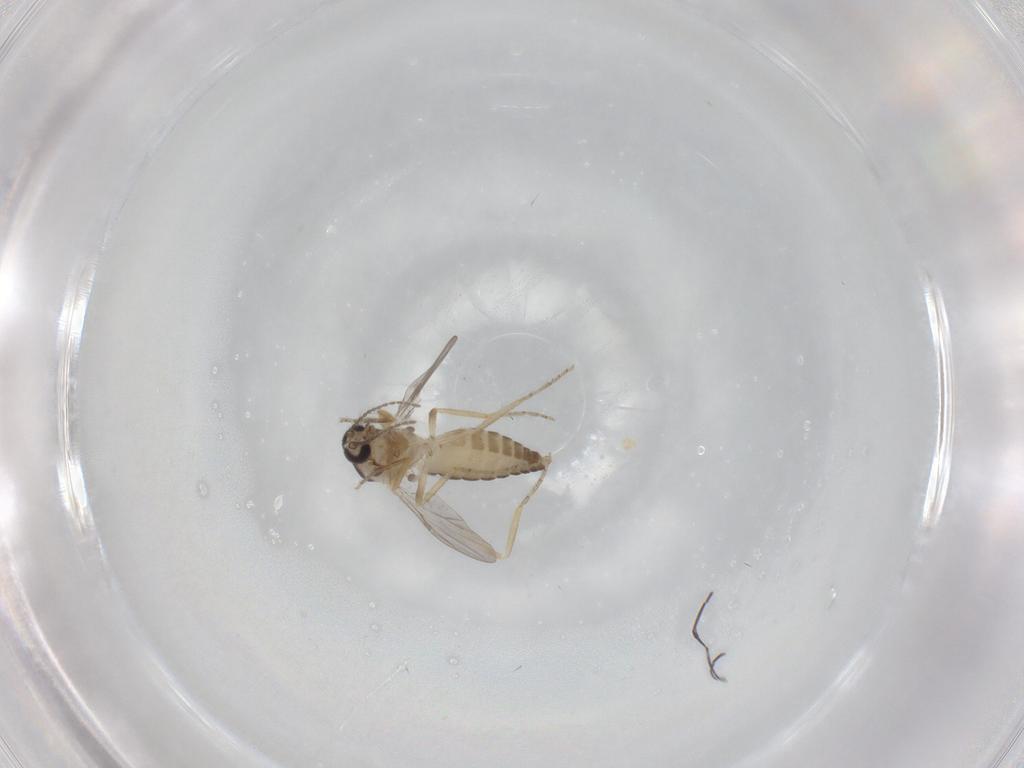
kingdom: Animalia
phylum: Arthropoda
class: Insecta
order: Diptera
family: Ceratopogonidae
